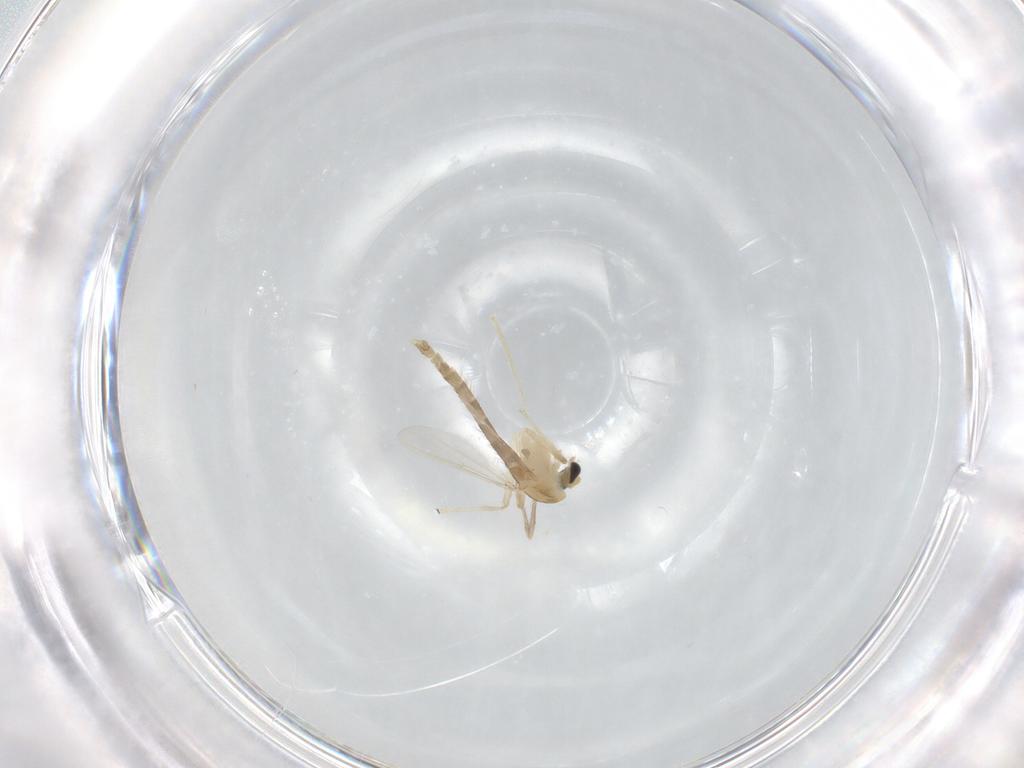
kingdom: Animalia
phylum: Arthropoda
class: Insecta
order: Diptera
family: Chironomidae
